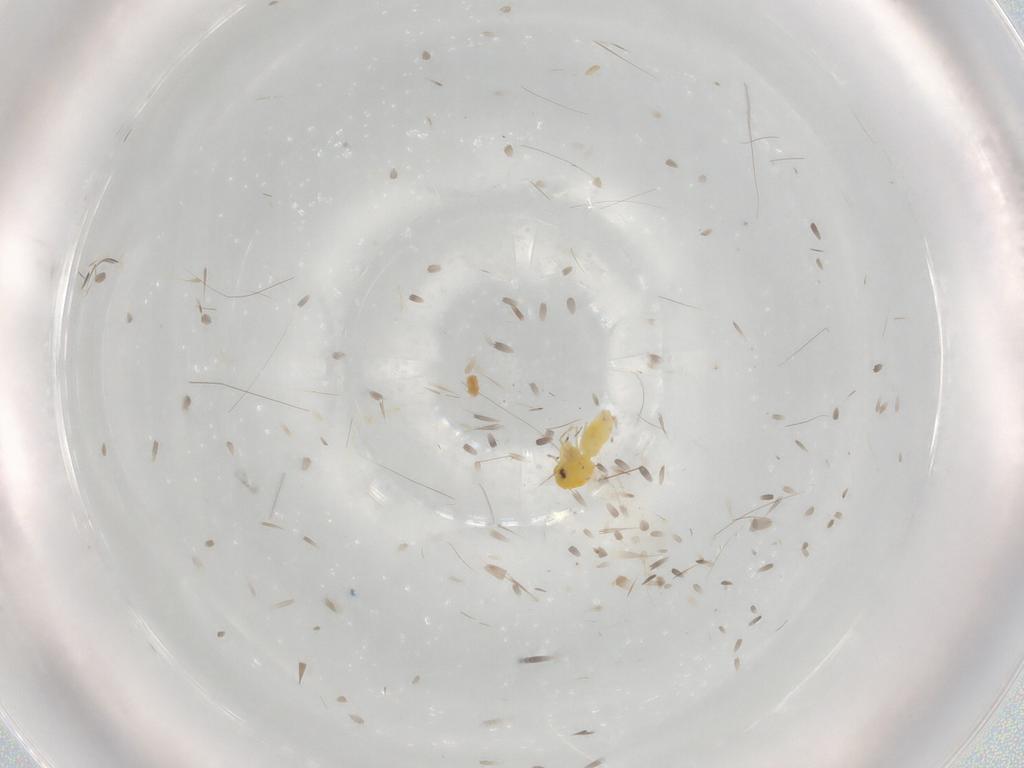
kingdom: Animalia
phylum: Arthropoda
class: Insecta
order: Hemiptera
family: Aleyrodidae
